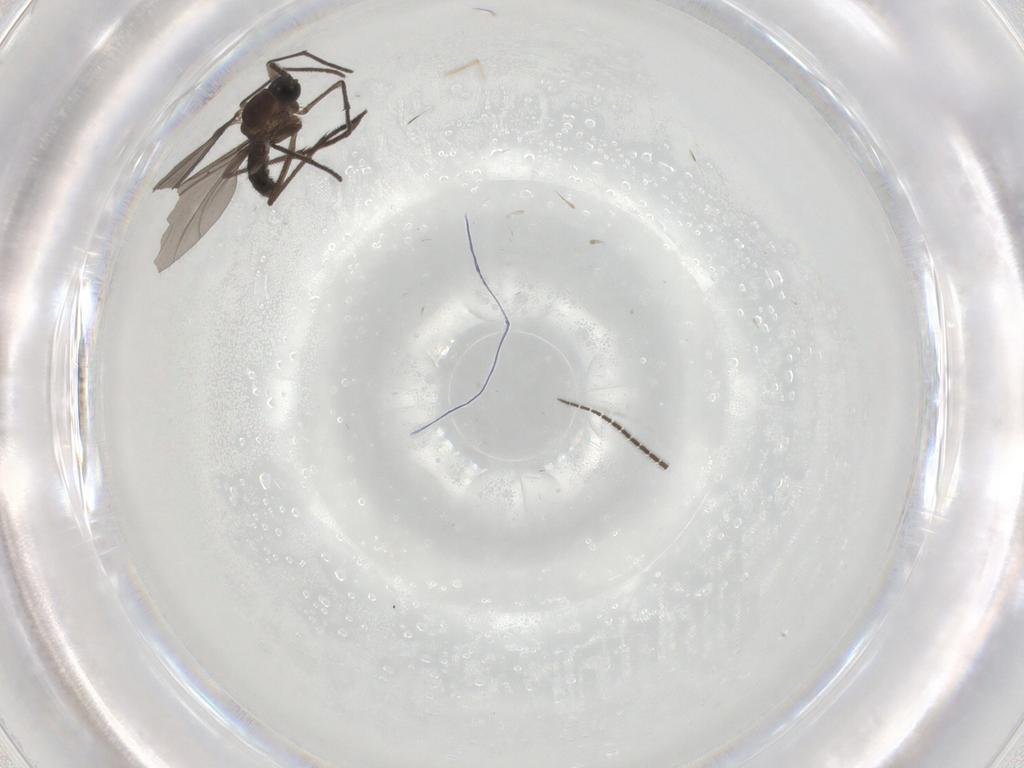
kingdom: Animalia
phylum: Arthropoda
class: Insecta
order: Diptera
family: Sciaridae
